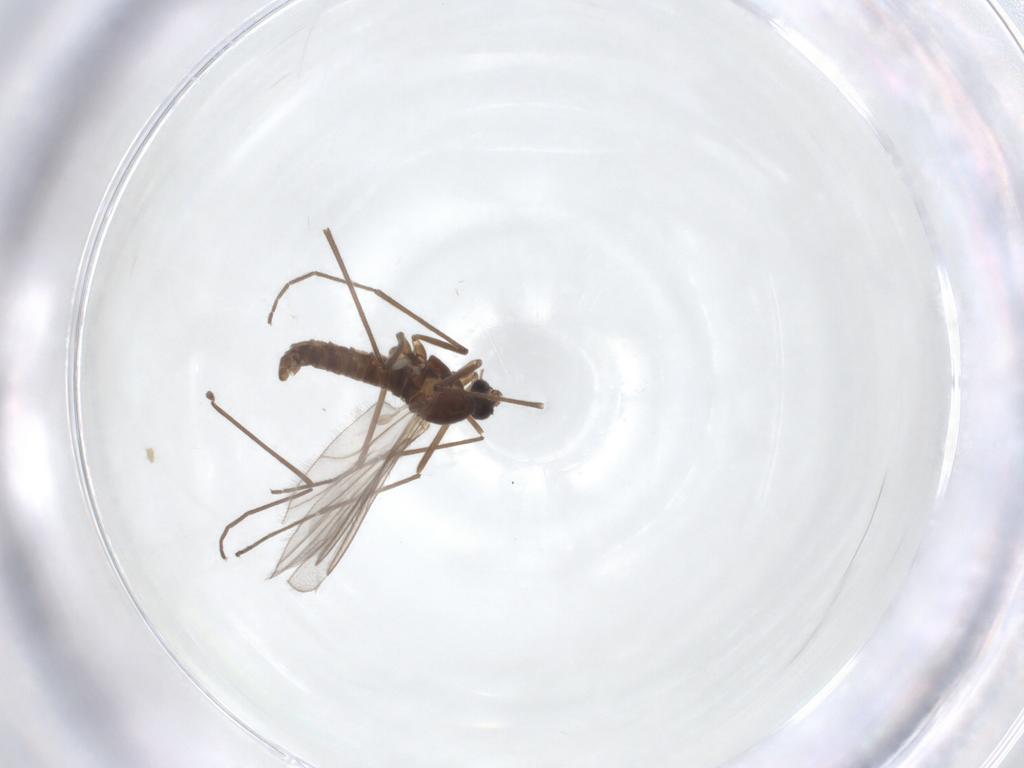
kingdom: Animalia
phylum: Arthropoda
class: Insecta
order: Diptera
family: Cecidomyiidae
